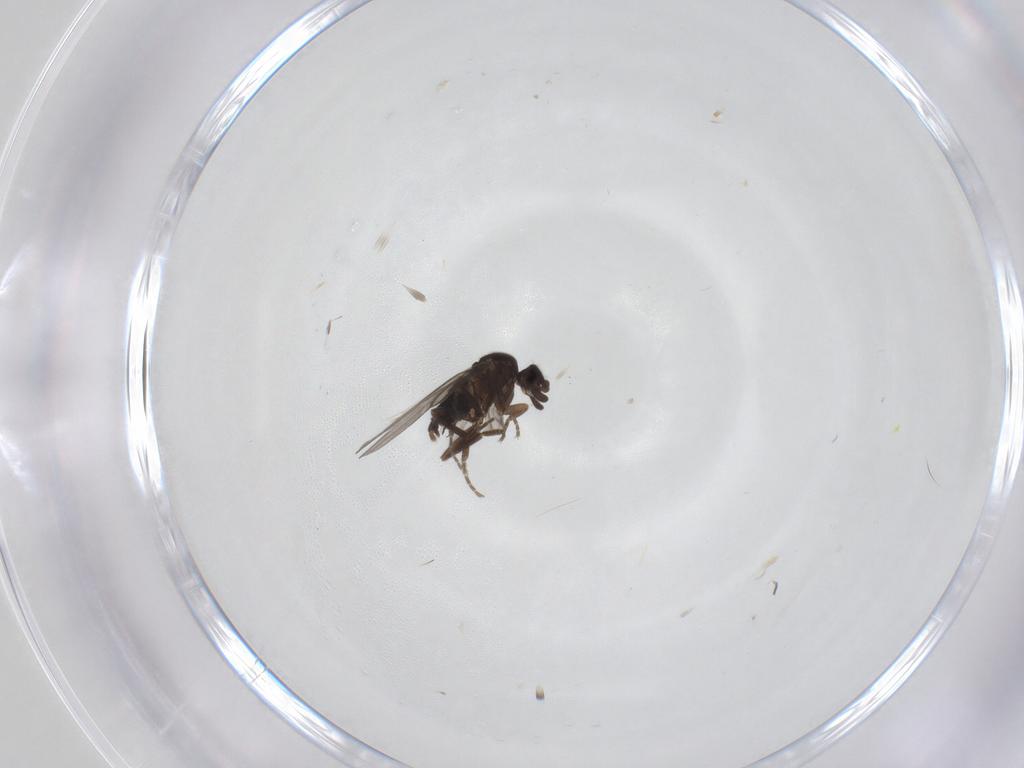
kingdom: Animalia
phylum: Arthropoda
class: Insecta
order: Diptera
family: Tipulidae
